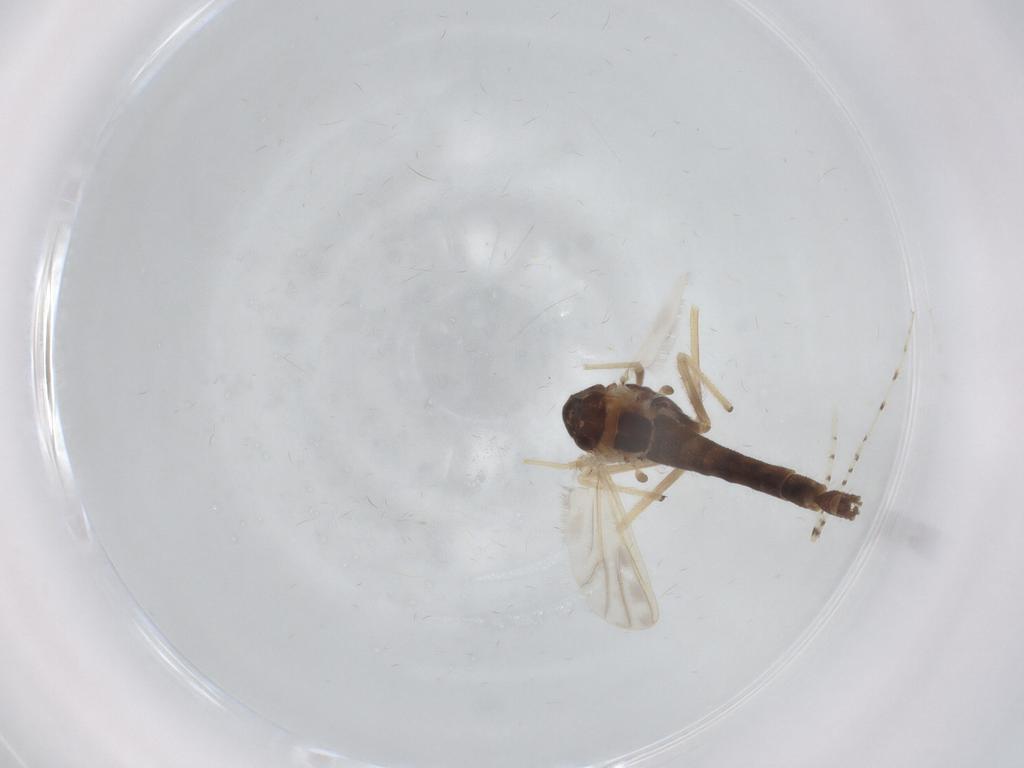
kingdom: Animalia
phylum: Arthropoda
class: Insecta
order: Diptera
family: Chironomidae
